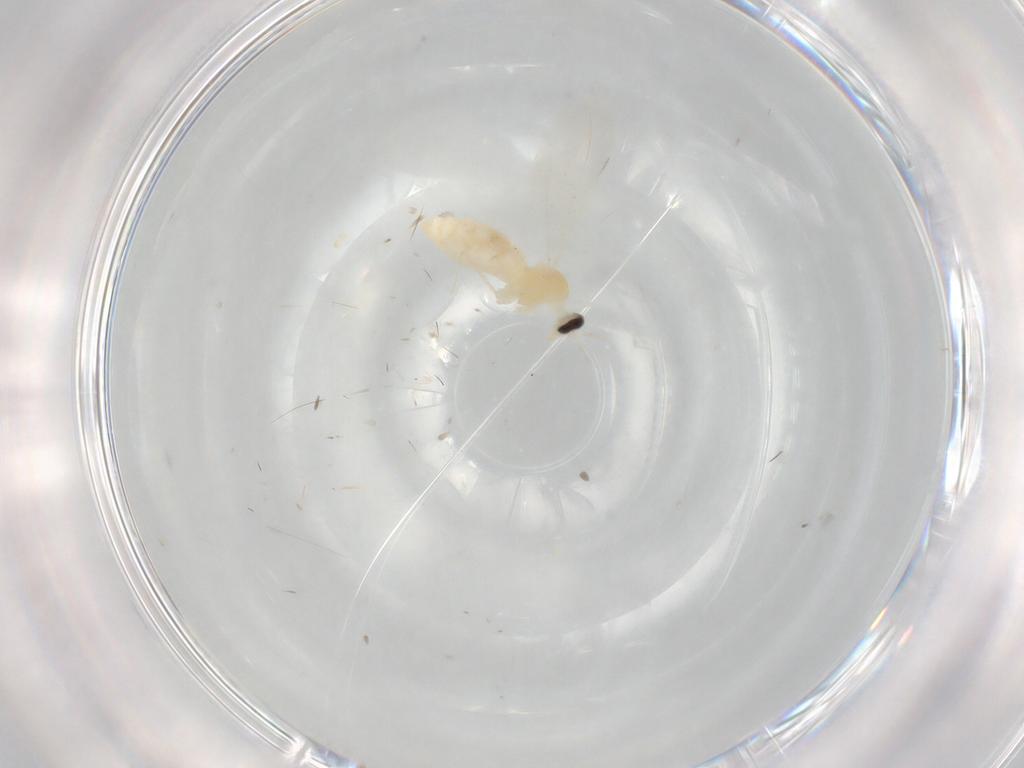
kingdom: Animalia
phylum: Arthropoda
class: Insecta
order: Diptera
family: Cecidomyiidae
